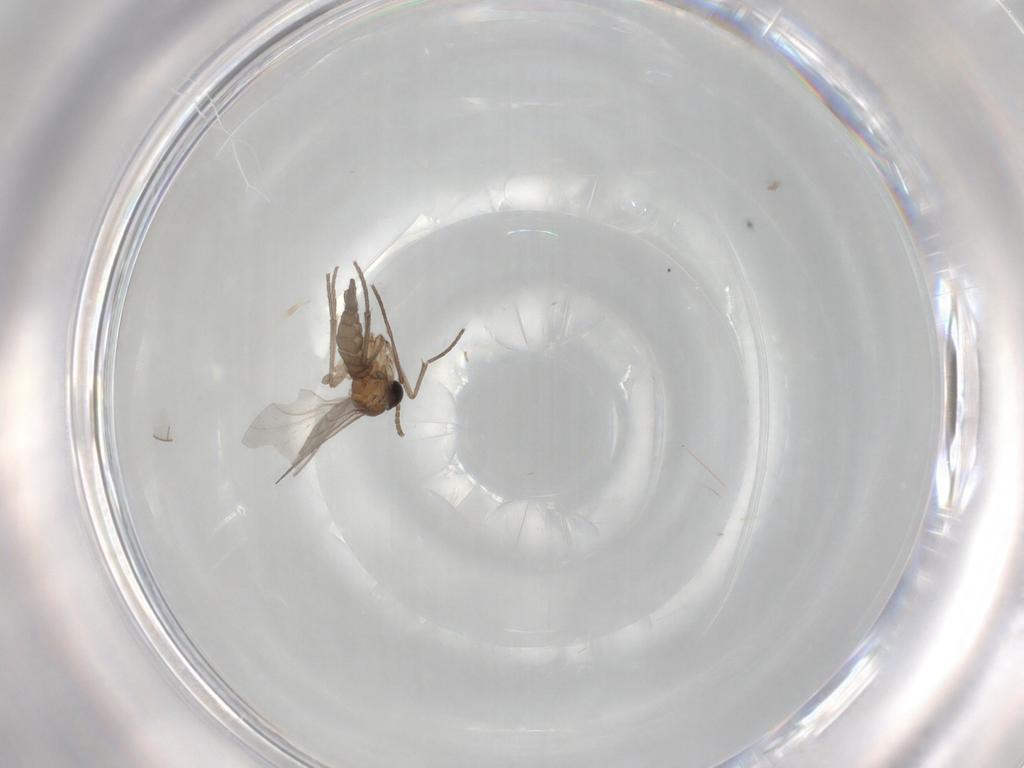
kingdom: Animalia
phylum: Arthropoda
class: Insecta
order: Diptera
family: Sciaridae
